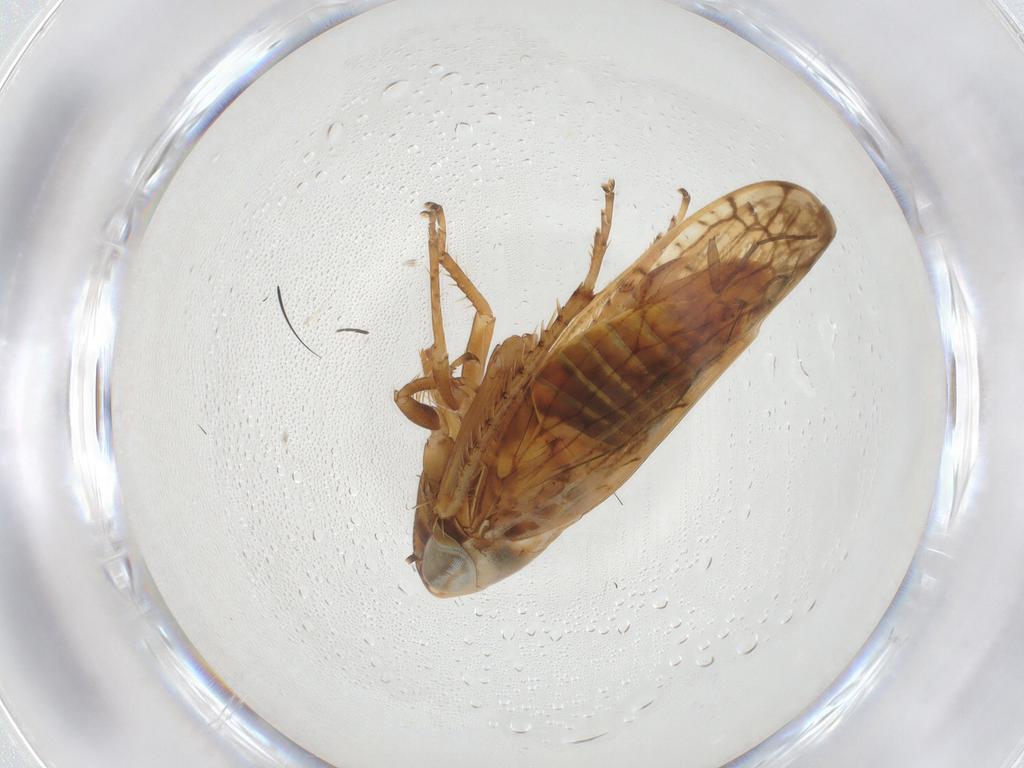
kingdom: Animalia
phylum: Arthropoda
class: Insecta
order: Hemiptera
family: Cicadellidae
